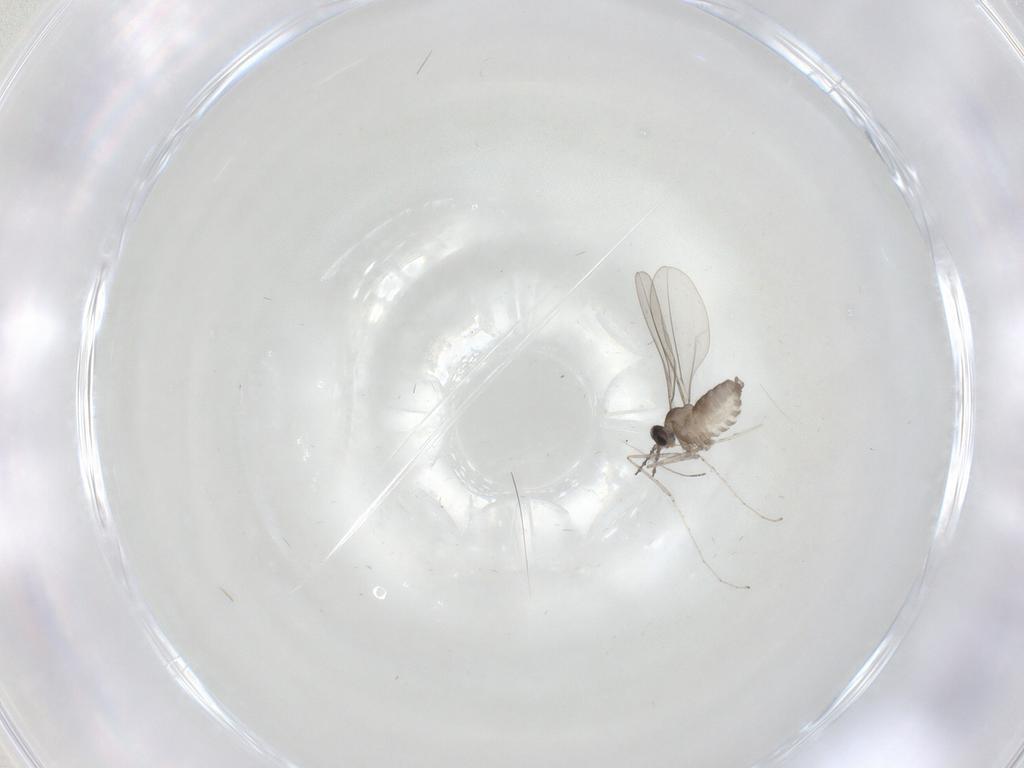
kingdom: Animalia
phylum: Arthropoda
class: Insecta
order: Diptera
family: Cecidomyiidae
